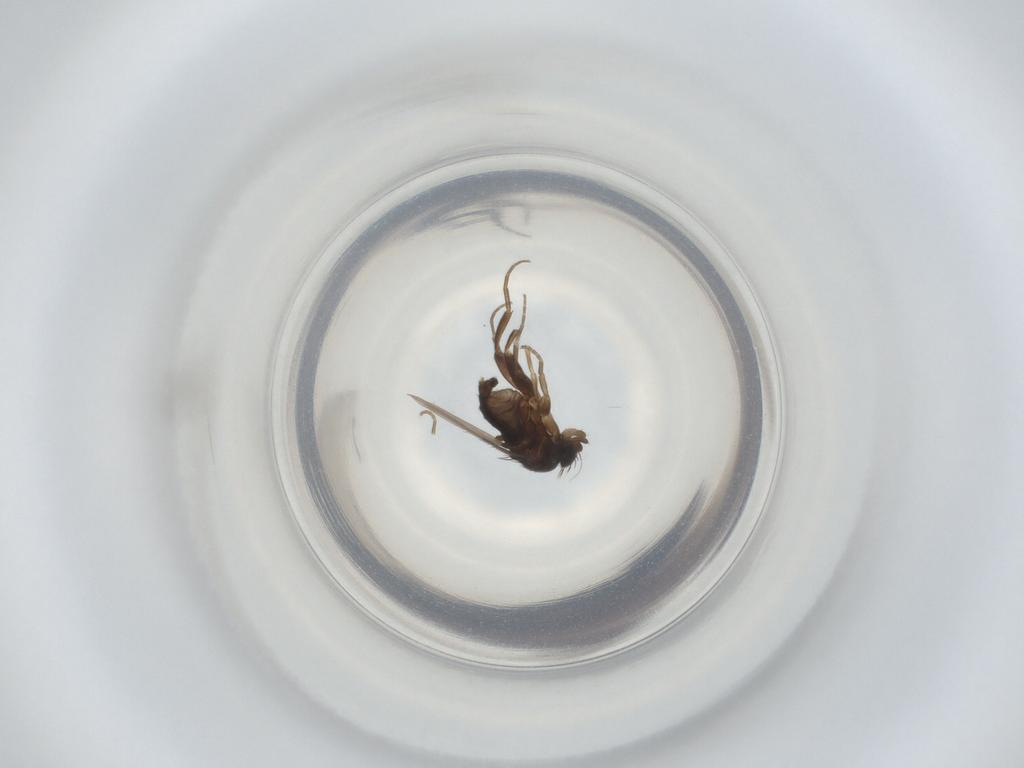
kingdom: Animalia
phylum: Arthropoda
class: Insecta
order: Diptera
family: Phoridae
